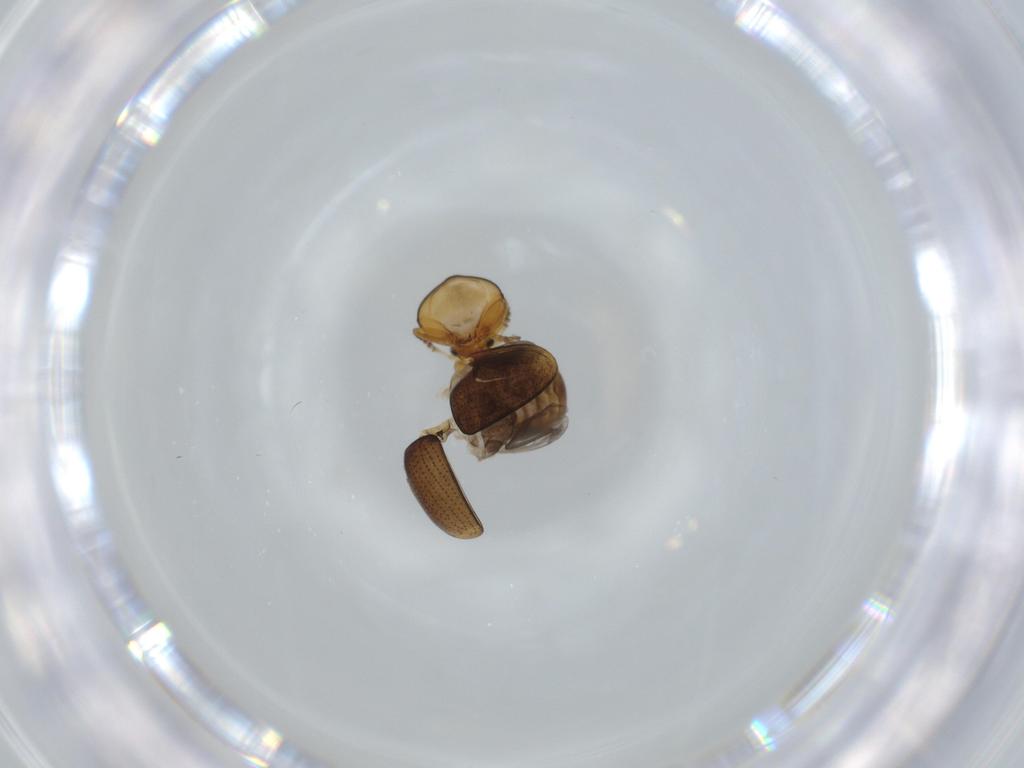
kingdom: Animalia
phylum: Arthropoda
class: Insecta
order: Coleoptera
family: Chrysomelidae
